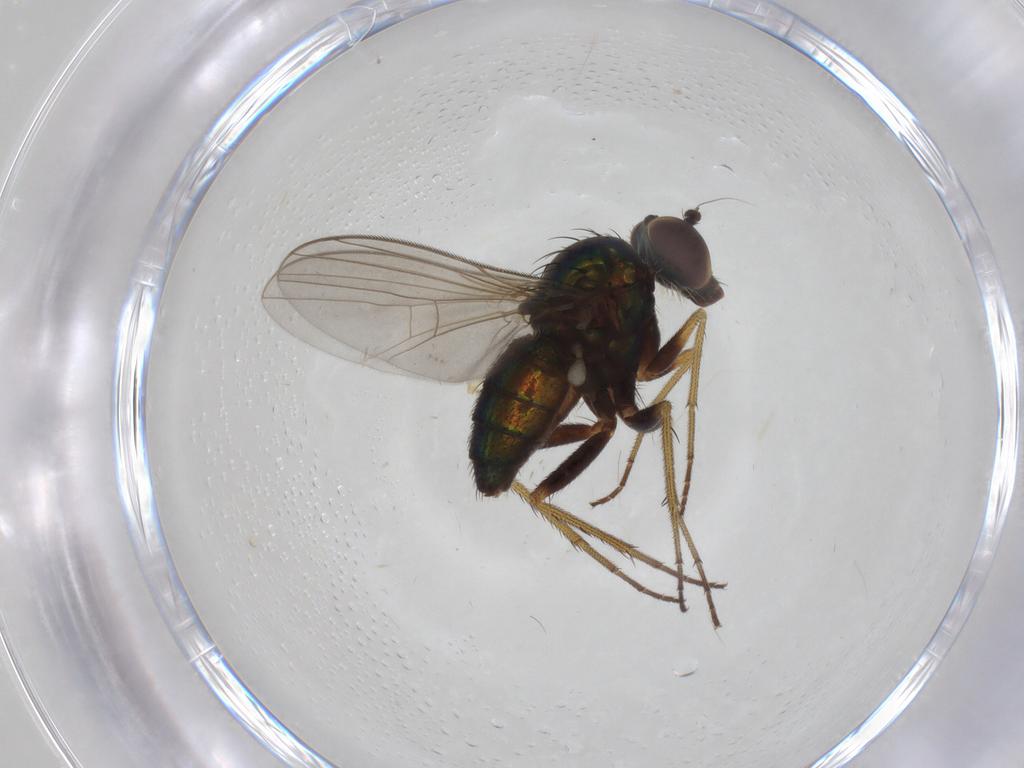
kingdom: Animalia
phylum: Arthropoda
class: Insecta
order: Diptera
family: Dolichopodidae
